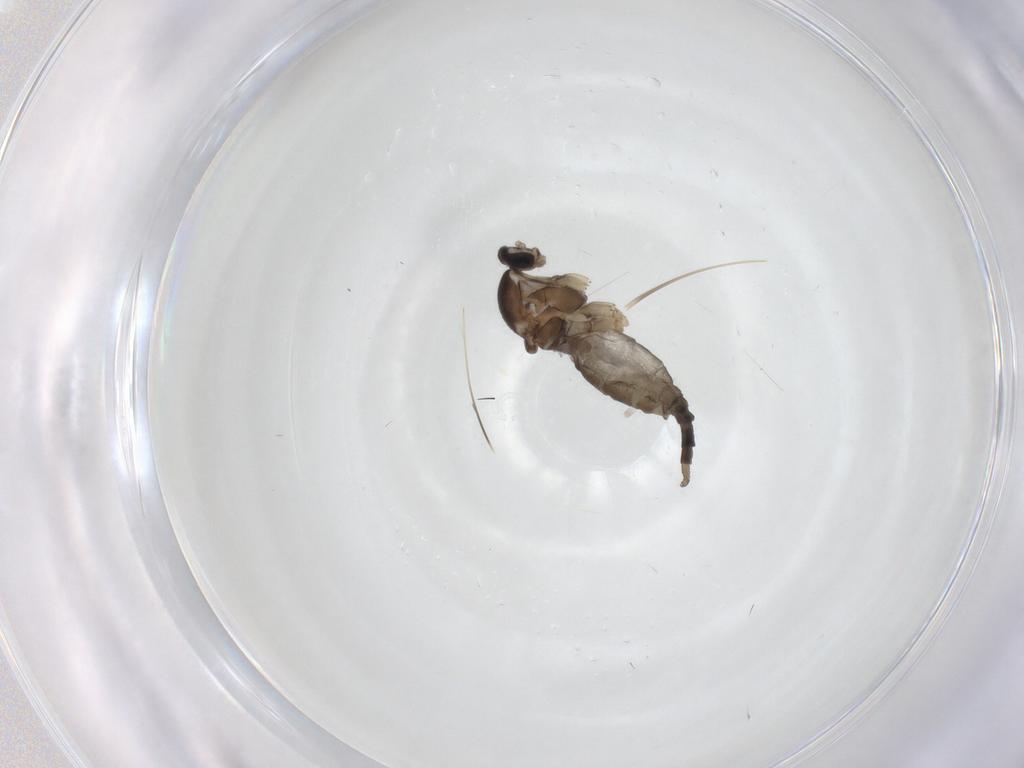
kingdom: Animalia
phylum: Arthropoda
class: Insecta
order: Diptera
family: Cecidomyiidae
